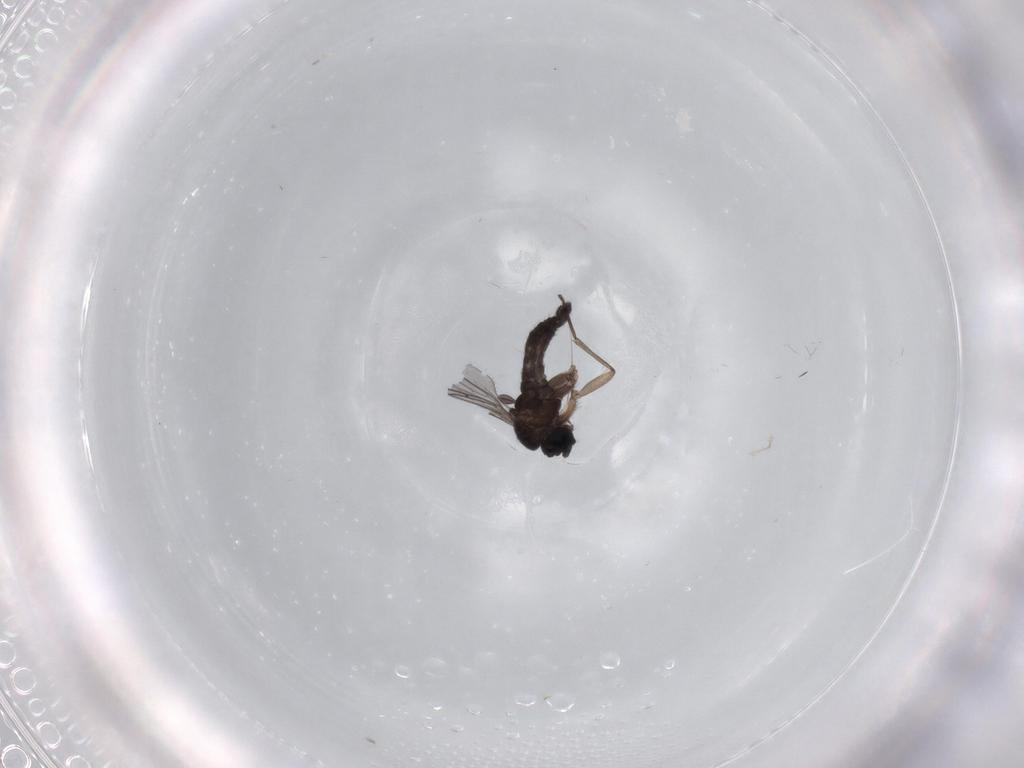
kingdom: Animalia
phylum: Arthropoda
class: Insecta
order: Diptera
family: Sciaridae
